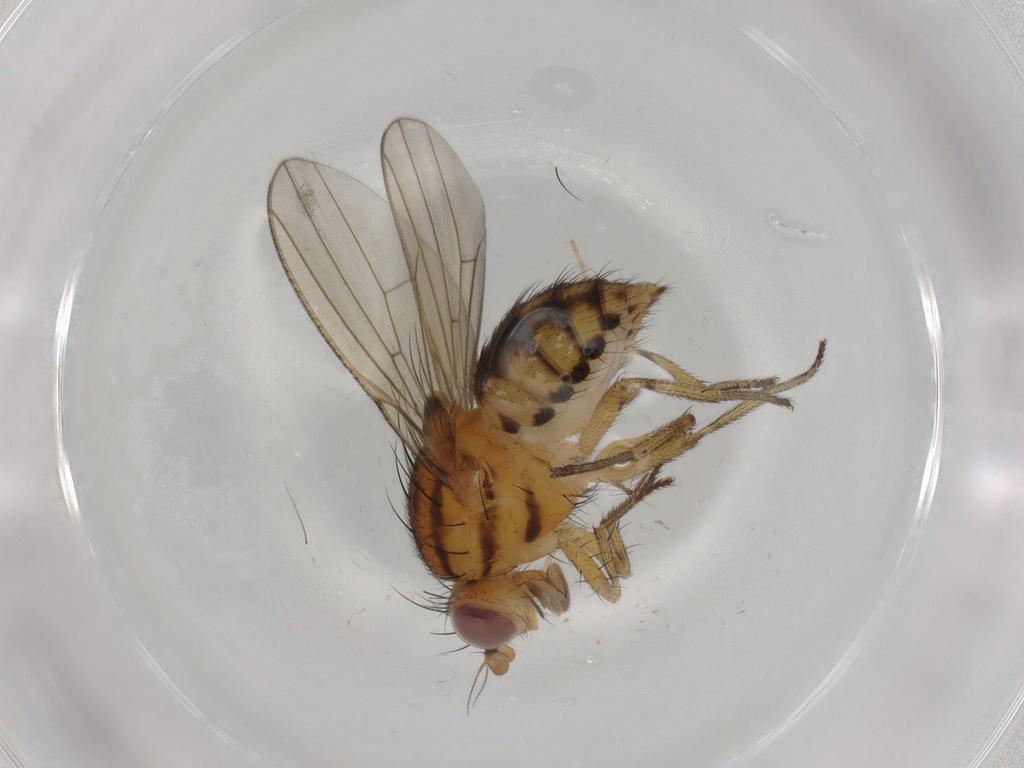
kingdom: Animalia
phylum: Arthropoda
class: Insecta
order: Diptera
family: Chironomidae
